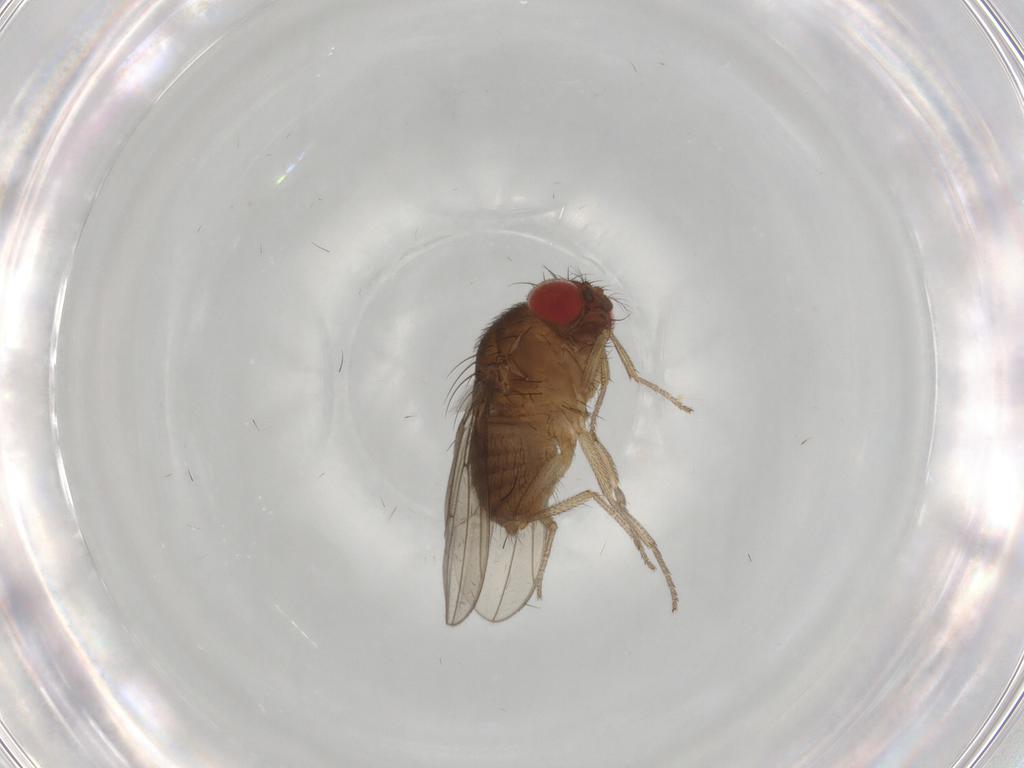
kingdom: Animalia
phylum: Arthropoda
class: Insecta
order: Diptera
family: Drosophilidae
